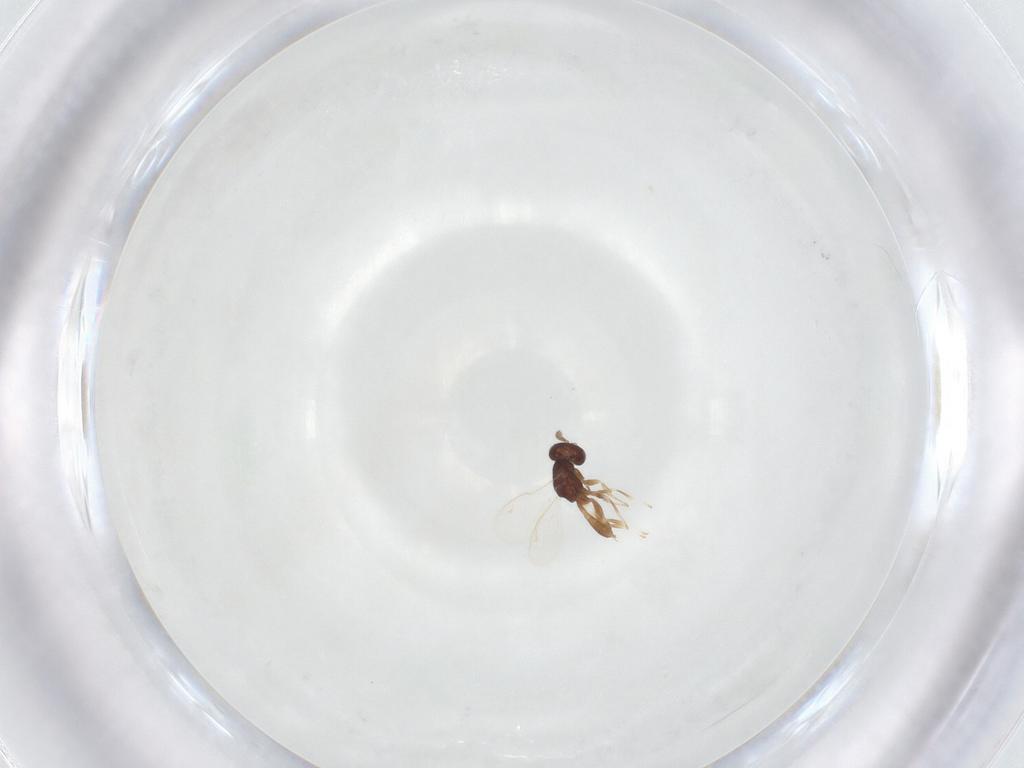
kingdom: Animalia
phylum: Arthropoda
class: Insecta
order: Hymenoptera
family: Pteromalidae
